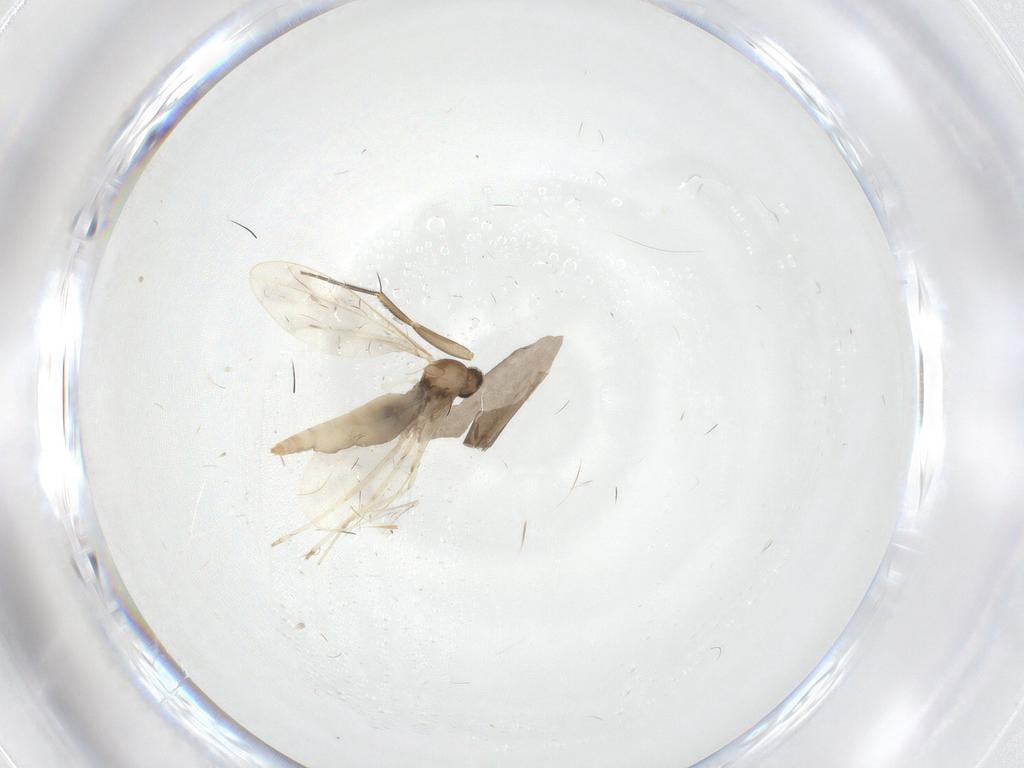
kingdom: Animalia
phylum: Arthropoda
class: Insecta
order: Diptera
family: Cecidomyiidae
